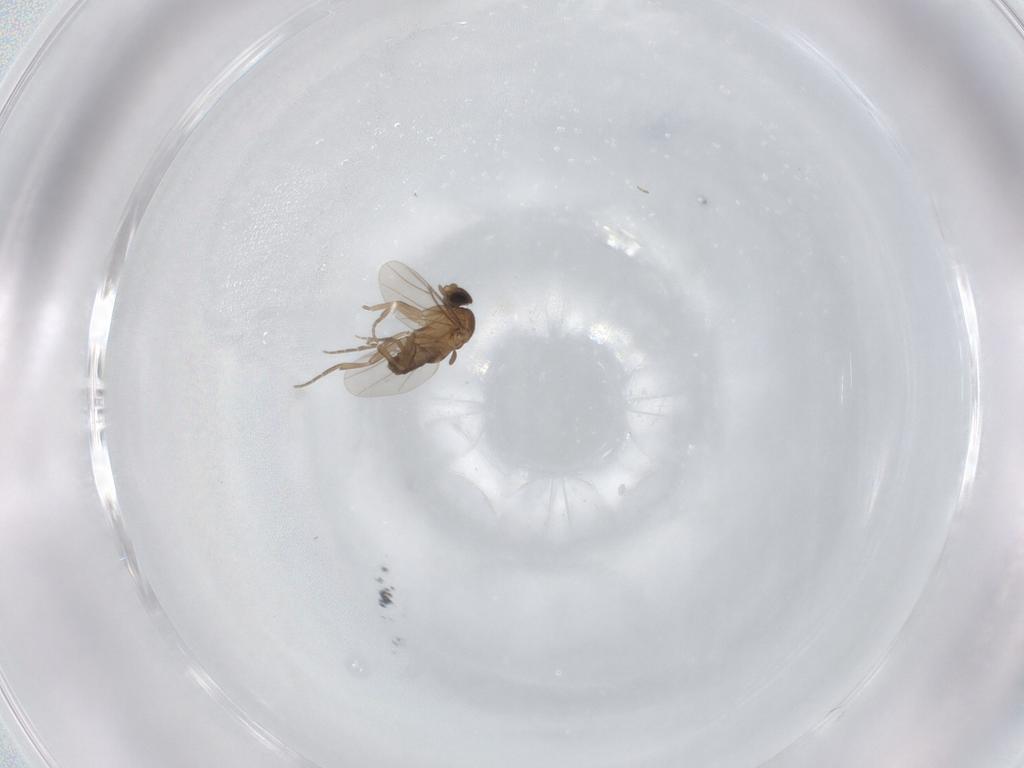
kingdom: Animalia
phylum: Arthropoda
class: Insecta
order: Diptera
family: Phoridae
